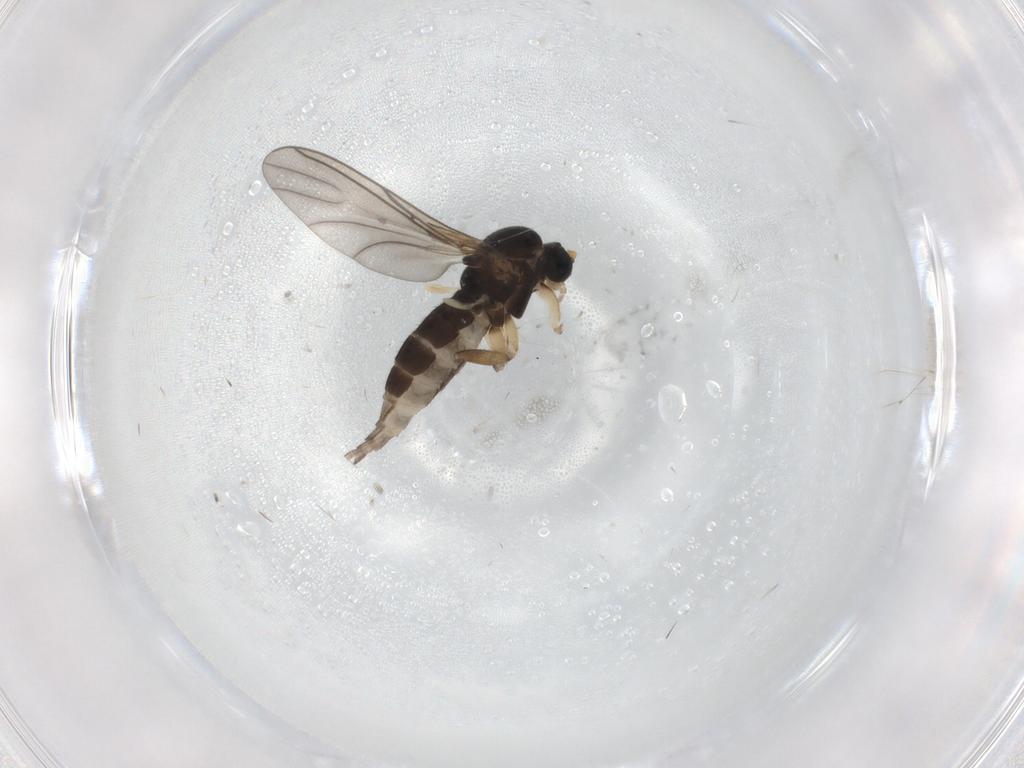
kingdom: Animalia
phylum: Arthropoda
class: Insecta
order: Diptera
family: Sciaridae
